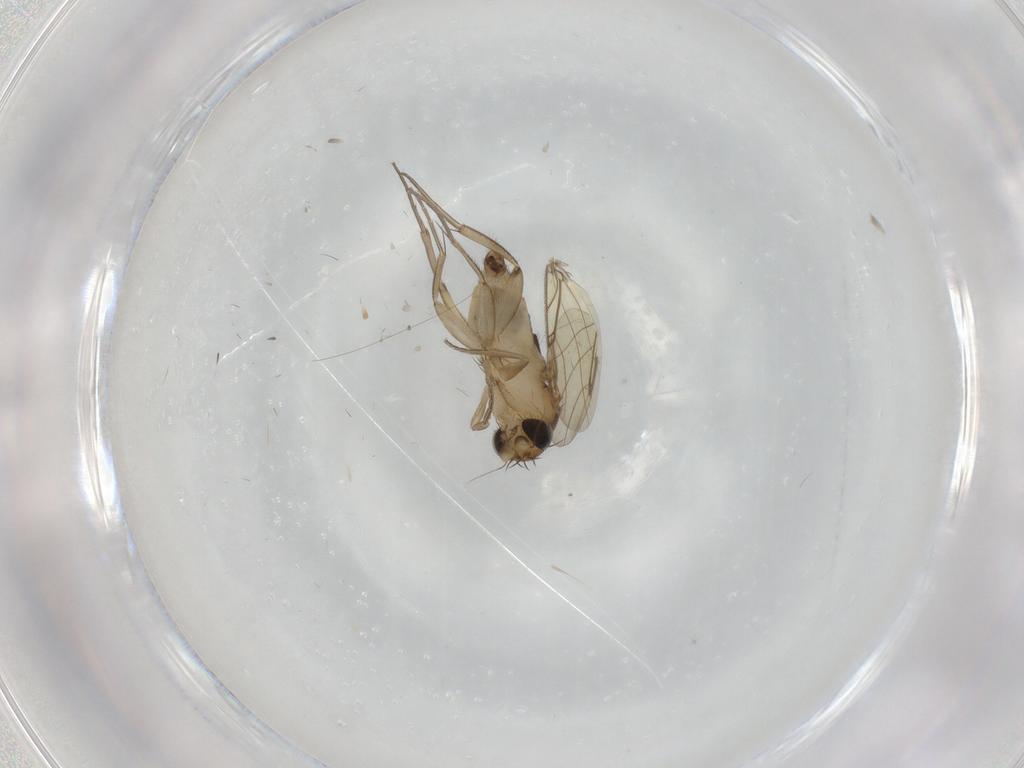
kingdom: Animalia
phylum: Arthropoda
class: Insecta
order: Diptera
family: Phoridae
